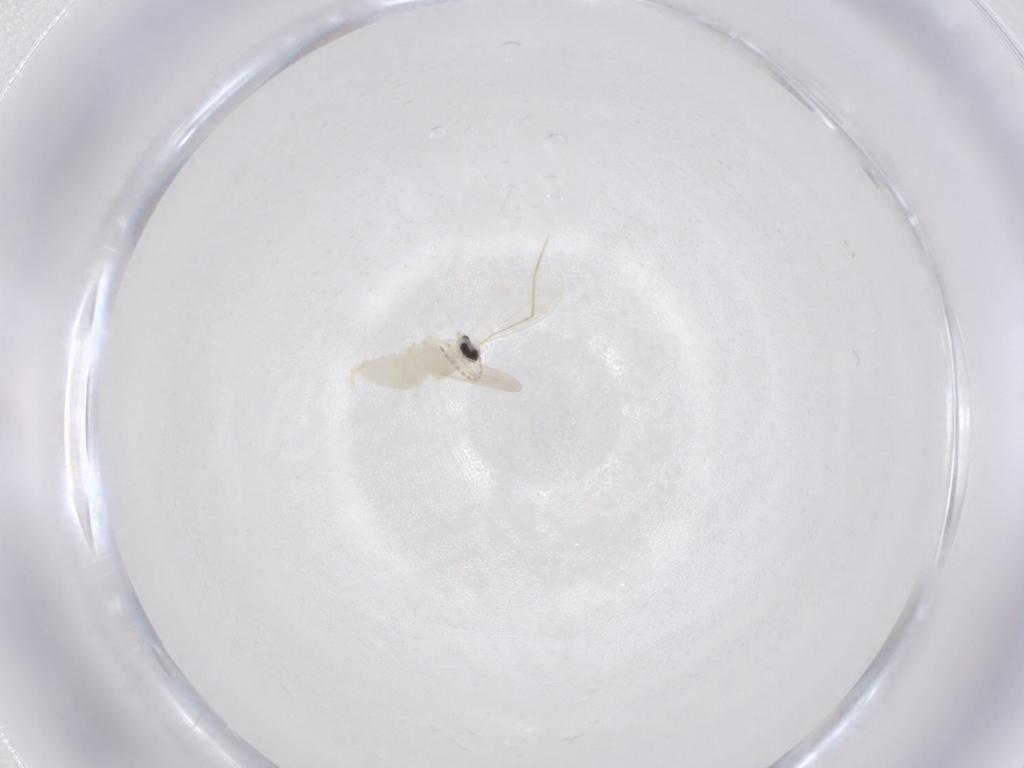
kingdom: Animalia
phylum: Arthropoda
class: Insecta
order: Diptera
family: Cecidomyiidae
